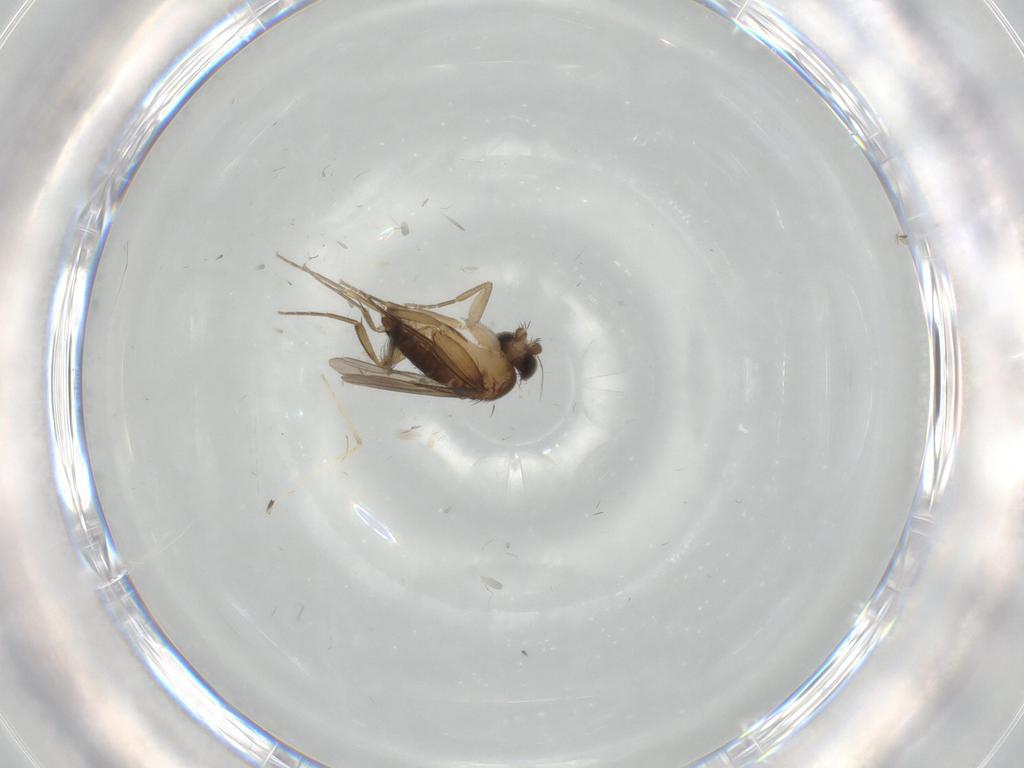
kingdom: Animalia
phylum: Arthropoda
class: Insecta
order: Diptera
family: Phoridae
